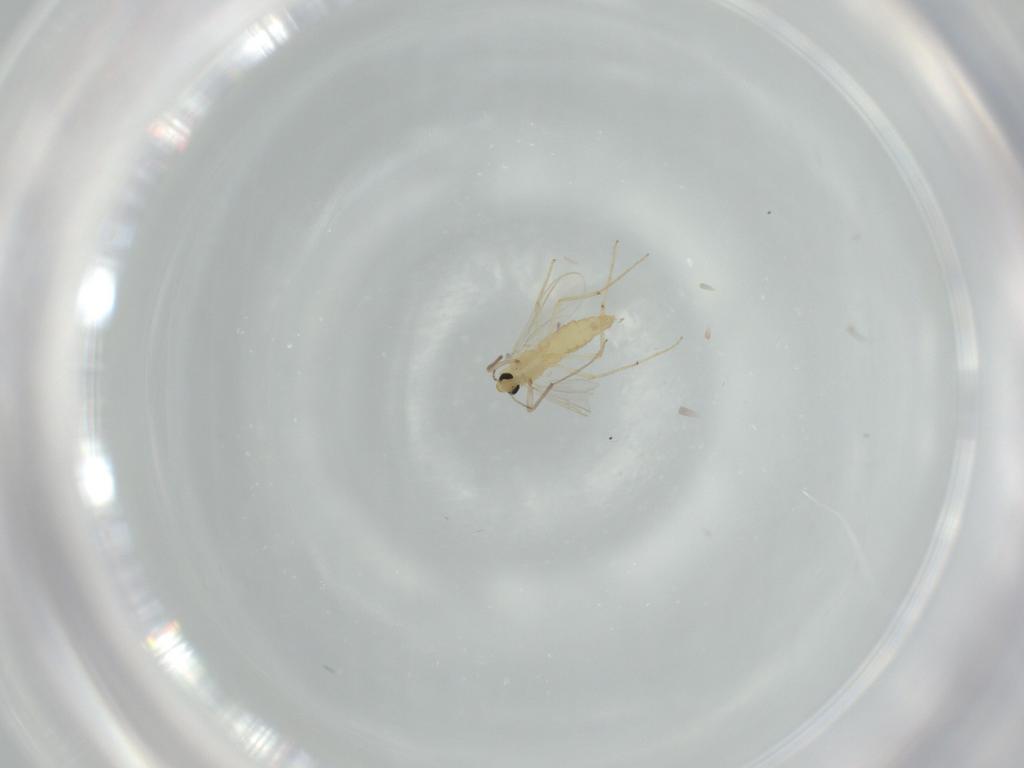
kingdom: Animalia
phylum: Arthropoda
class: Insecta
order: Diptera
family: Chironomidae
